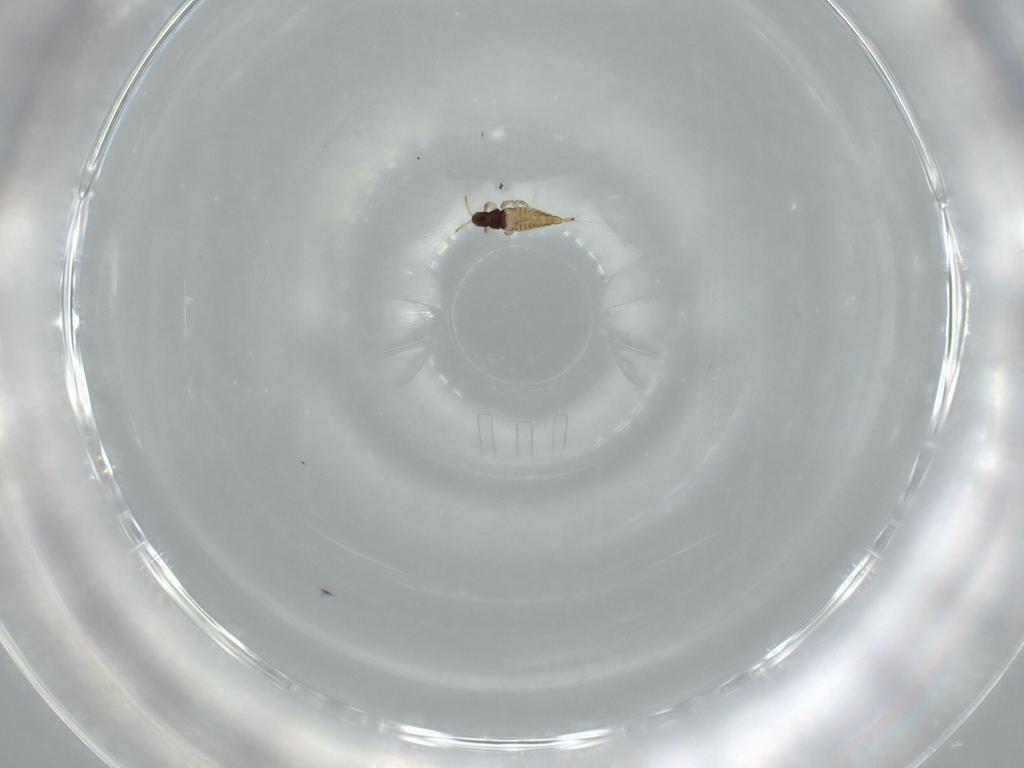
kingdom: Animalia
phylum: Arthropoda
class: Insecta
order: Thysanoptera
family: Phlaeothripidae
